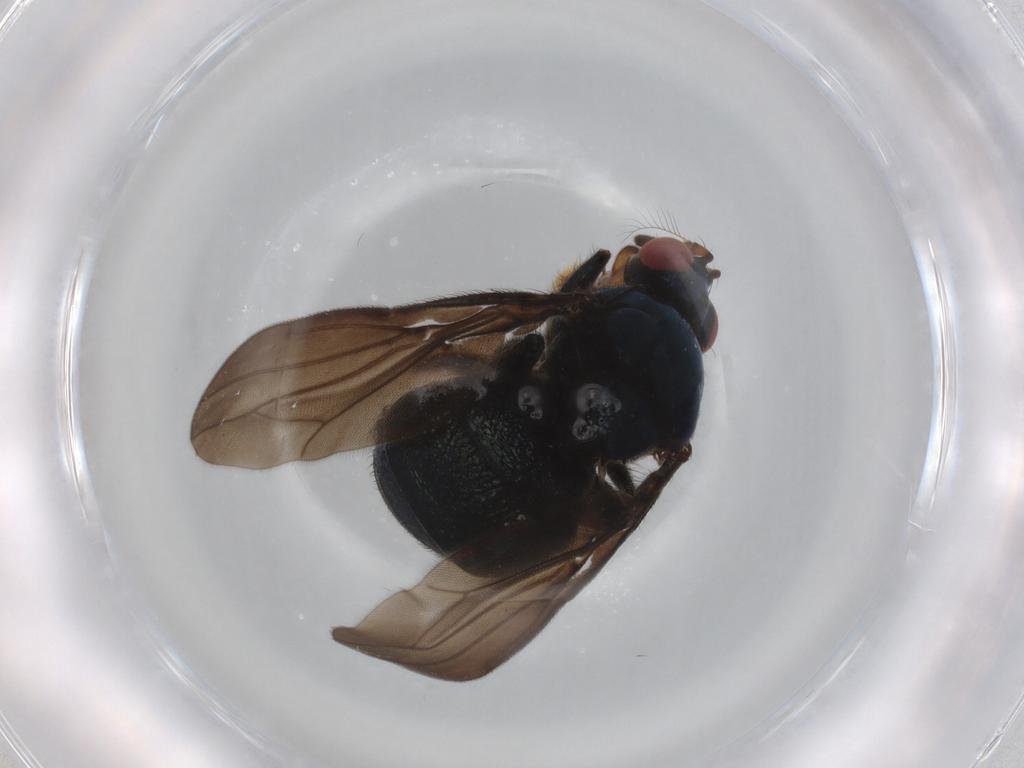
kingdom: Animalia
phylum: Arthropoda
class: Insecta
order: Diptera
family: Ephydridae
